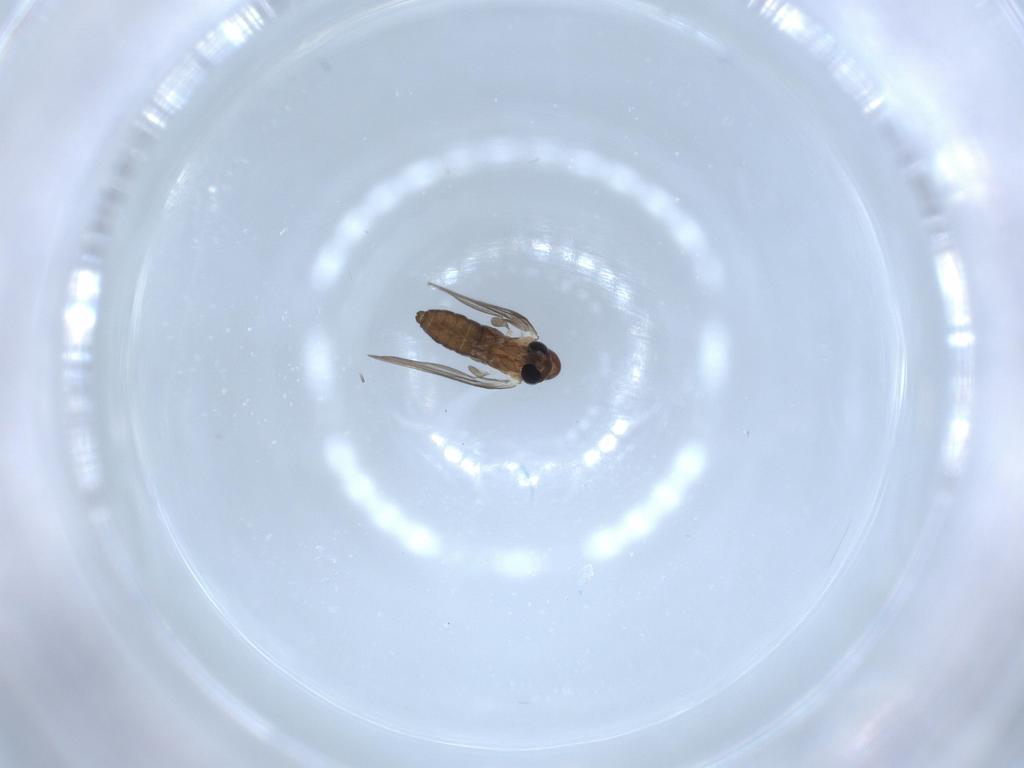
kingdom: Animalia
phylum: Arthropoda
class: Insecta
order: Diptera
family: Psychodidae
